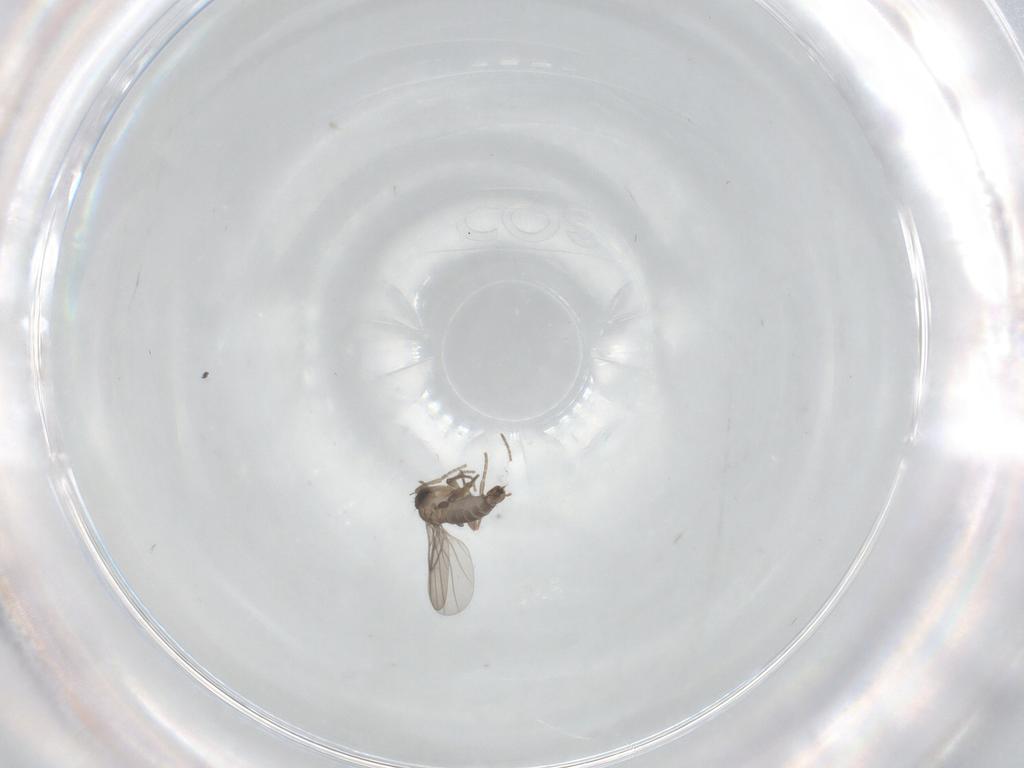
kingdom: Animalia
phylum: Arthropoda
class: Insecta
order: Diptera
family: Phoridae
